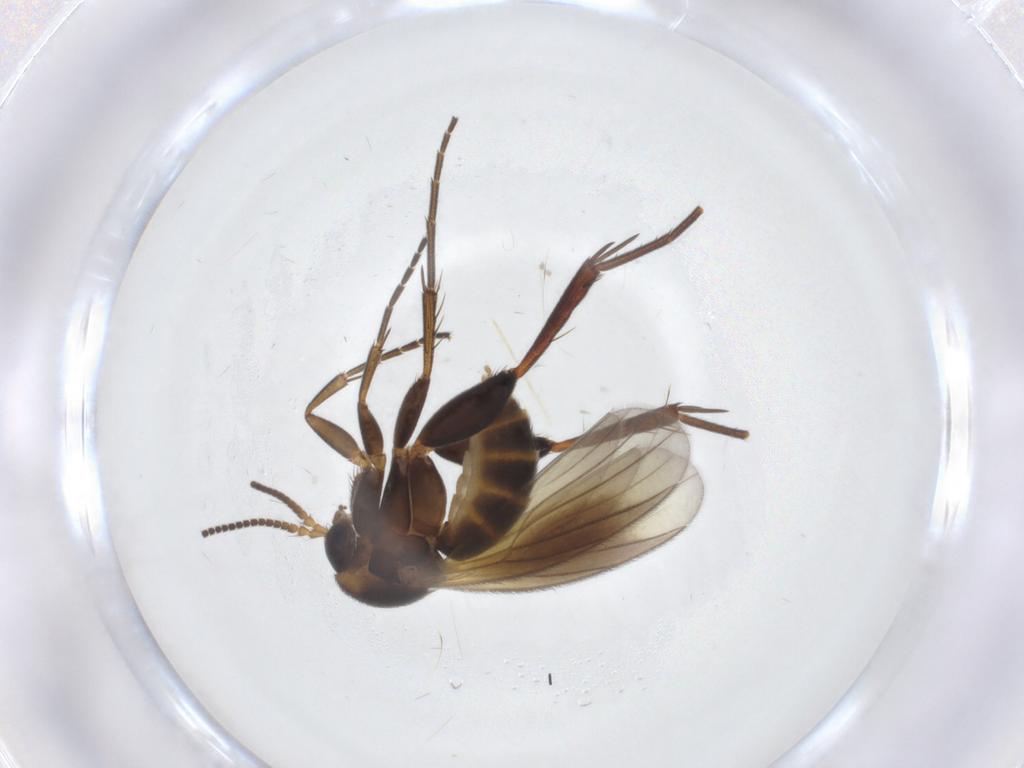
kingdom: Animalia
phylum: Arthropoda
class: Insecta
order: Diptera
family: Mycetophilidae
